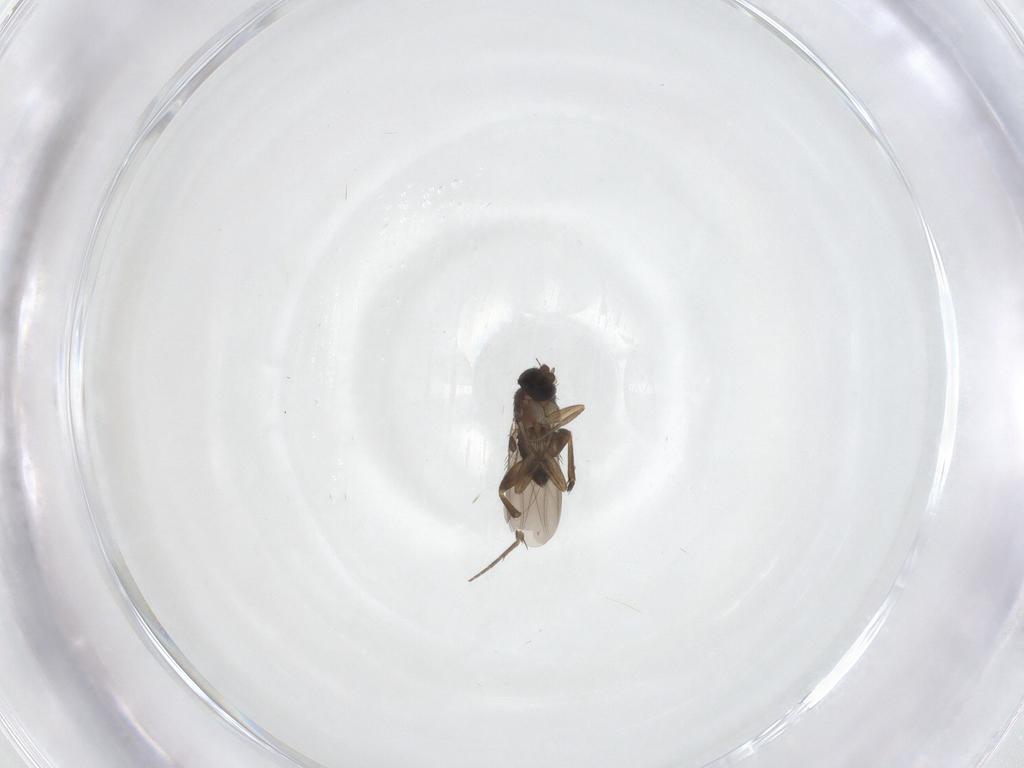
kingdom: Animalia
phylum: Arthropoda
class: Insecta
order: Diptera
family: Phoridae
